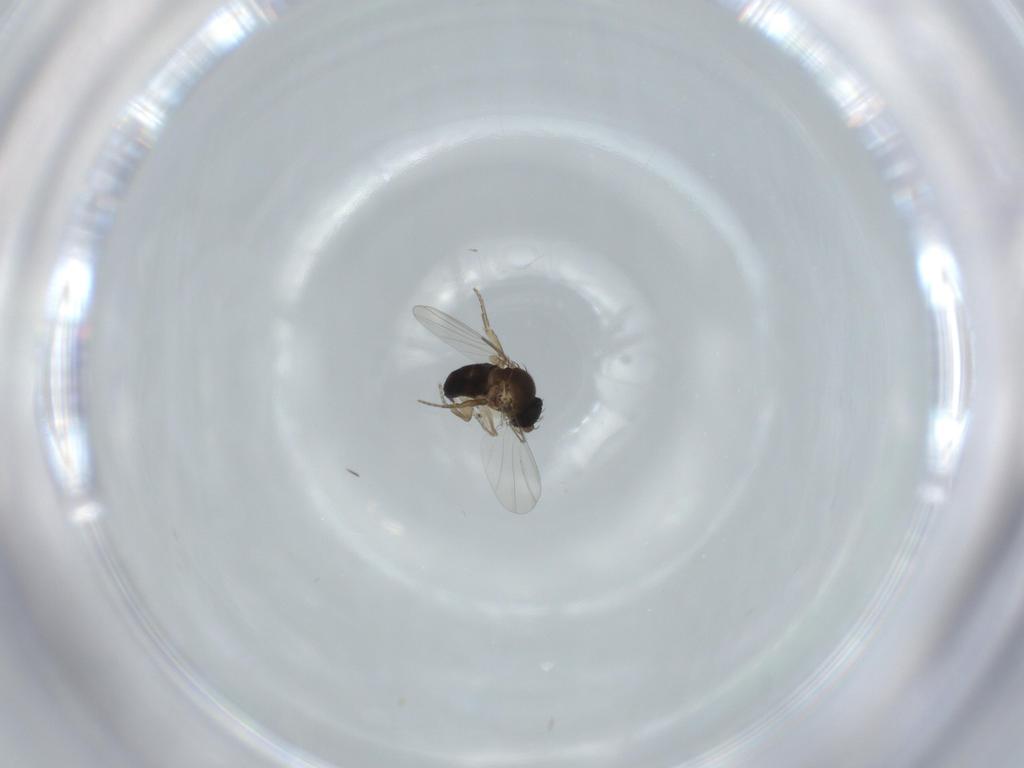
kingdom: Animalia
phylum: Arthropoda
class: Insecta
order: Diptera
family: Phoridae
